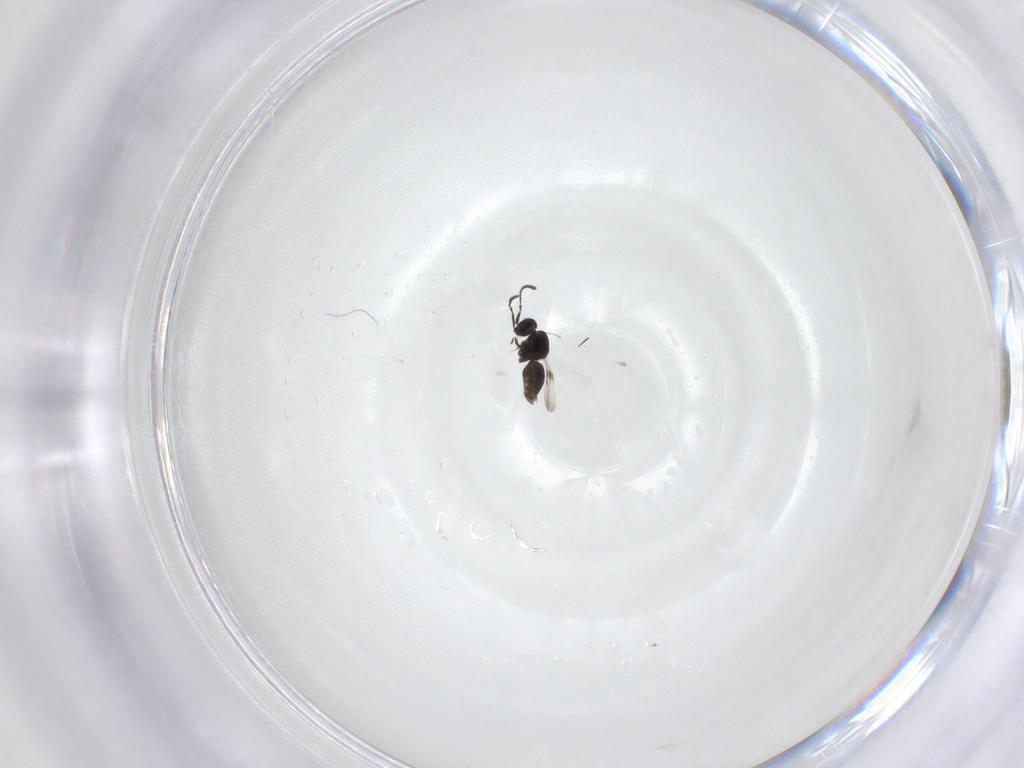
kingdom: Animalia
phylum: Arthropoda
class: Insecta
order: Hymenoptera
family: Ceraphronidae
